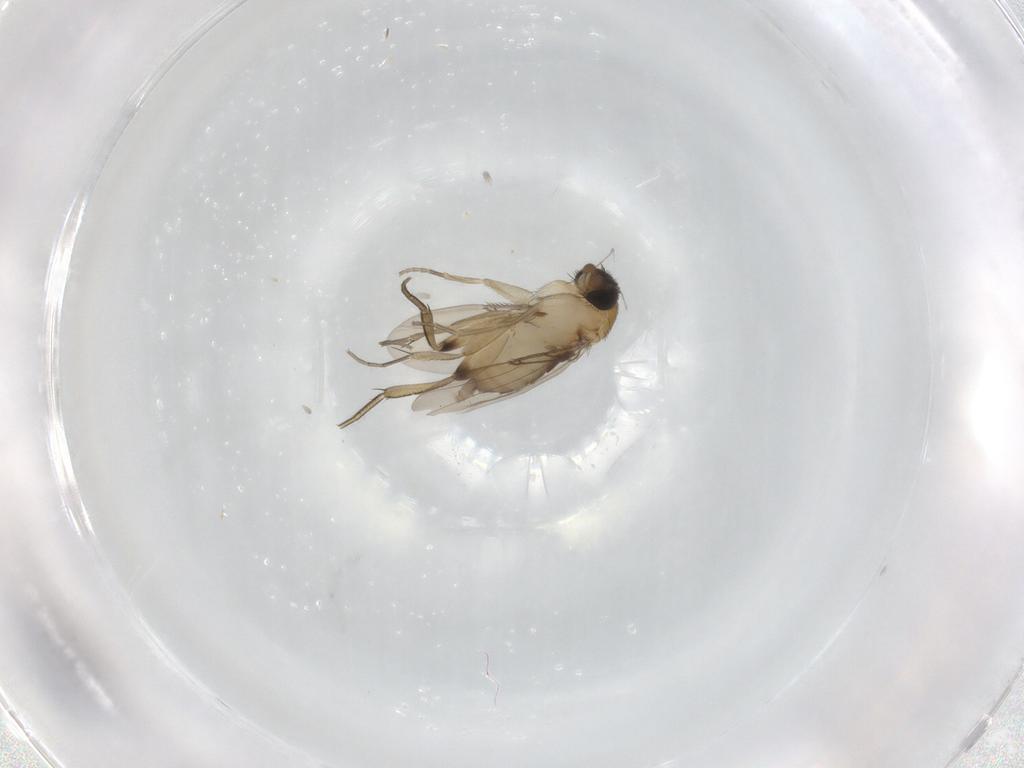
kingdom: Animalia
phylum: Arthropoda
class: Insecta
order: Diptera
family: Phoridae
